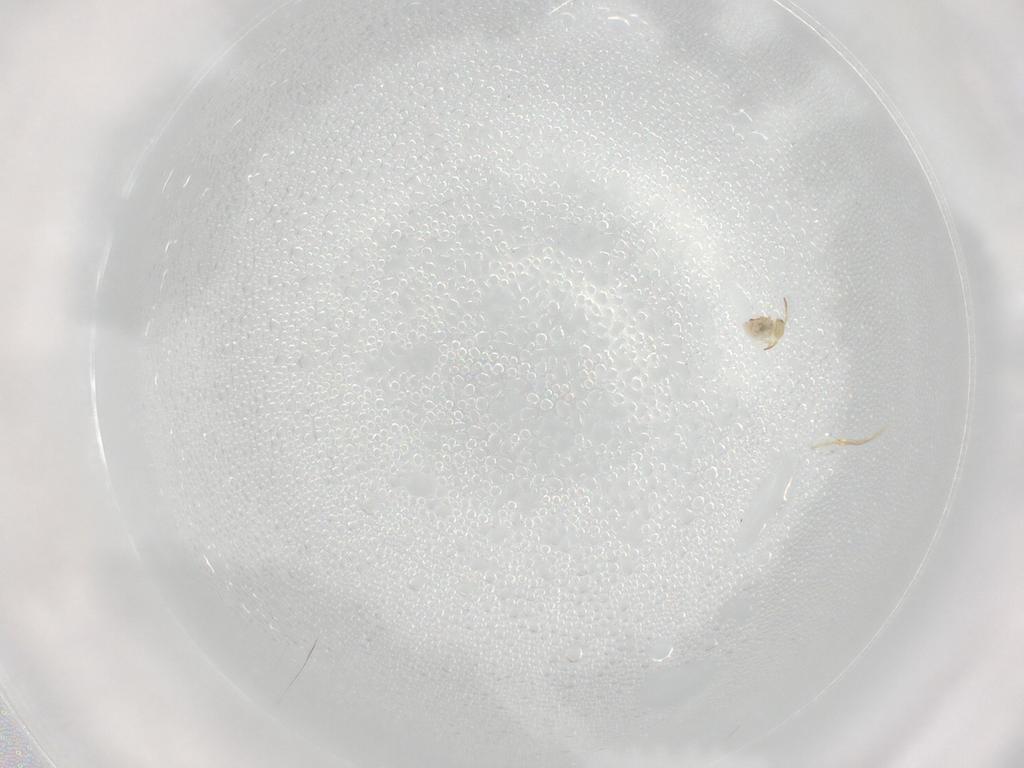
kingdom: Animalia
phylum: Arthropoda
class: Collembola
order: Symphypleona
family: Bourletiellidae
